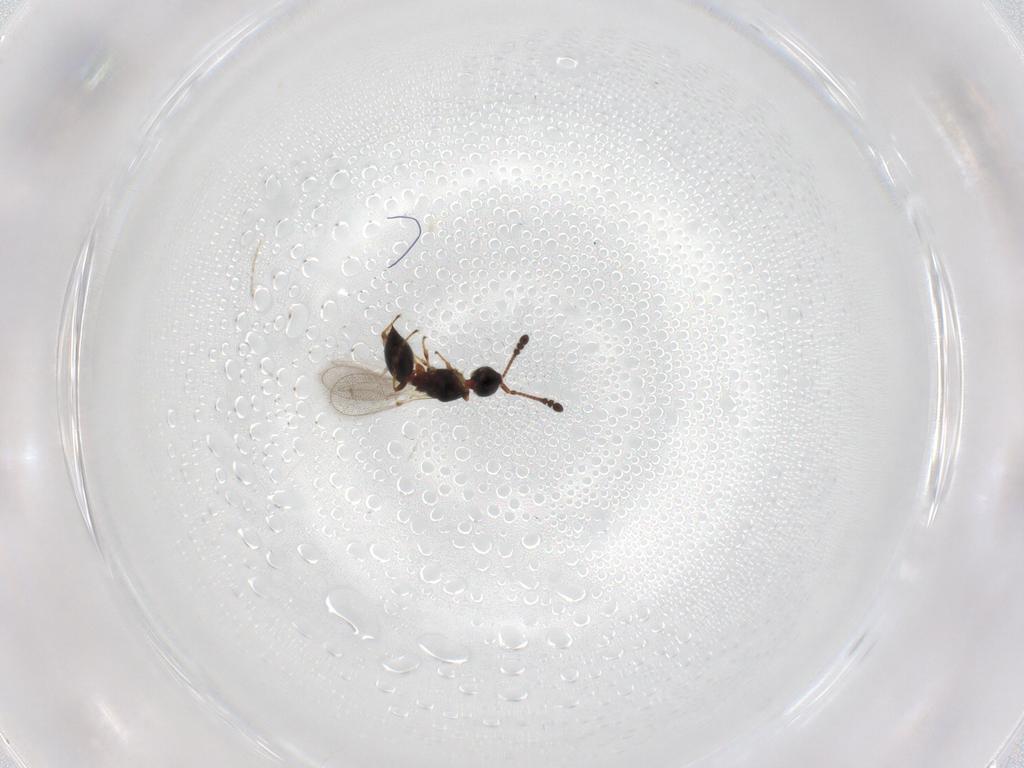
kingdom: Animalia
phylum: Arthropoda
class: Insecta
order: Hymenoptera
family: Diapriidae
